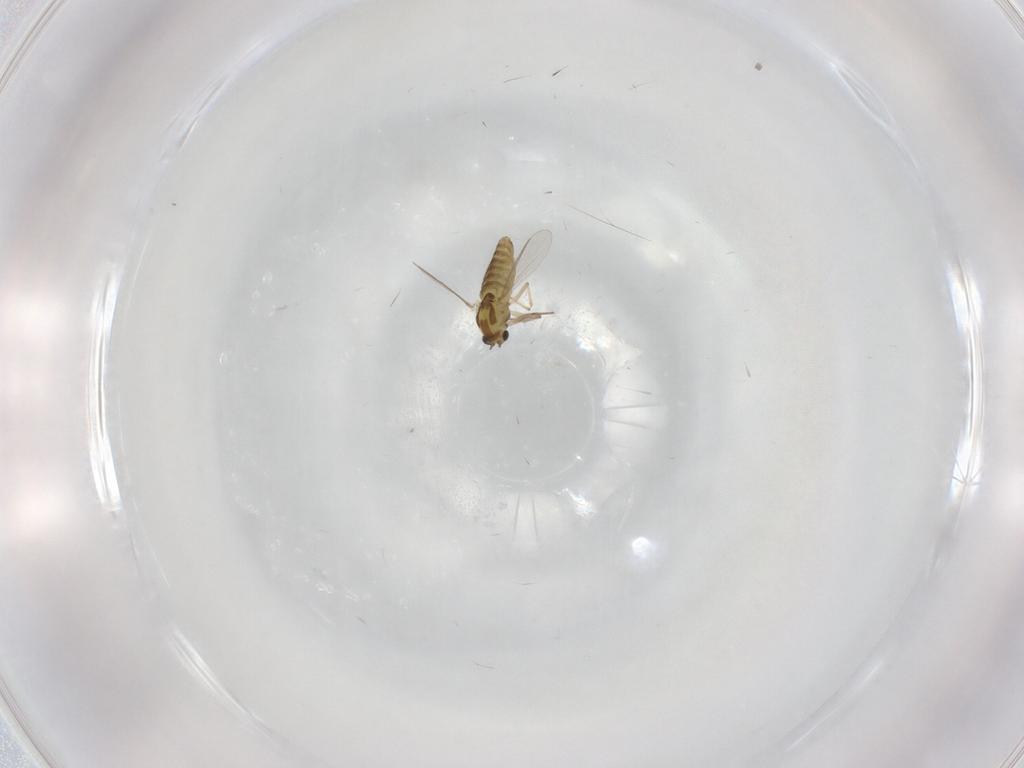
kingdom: Animalia
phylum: Arthropoda
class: Insecta
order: Diptera
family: Chironomidae
